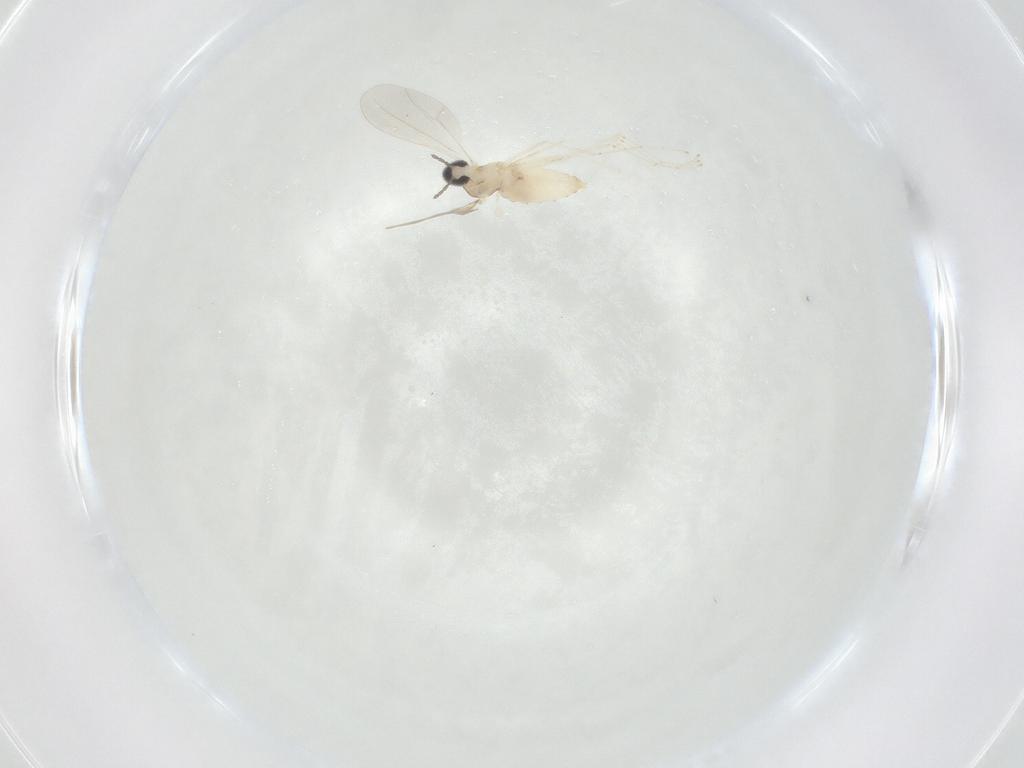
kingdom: Animalia
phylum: Arthropoda
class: Insecta
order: Diptera
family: Cecidomyiidae
